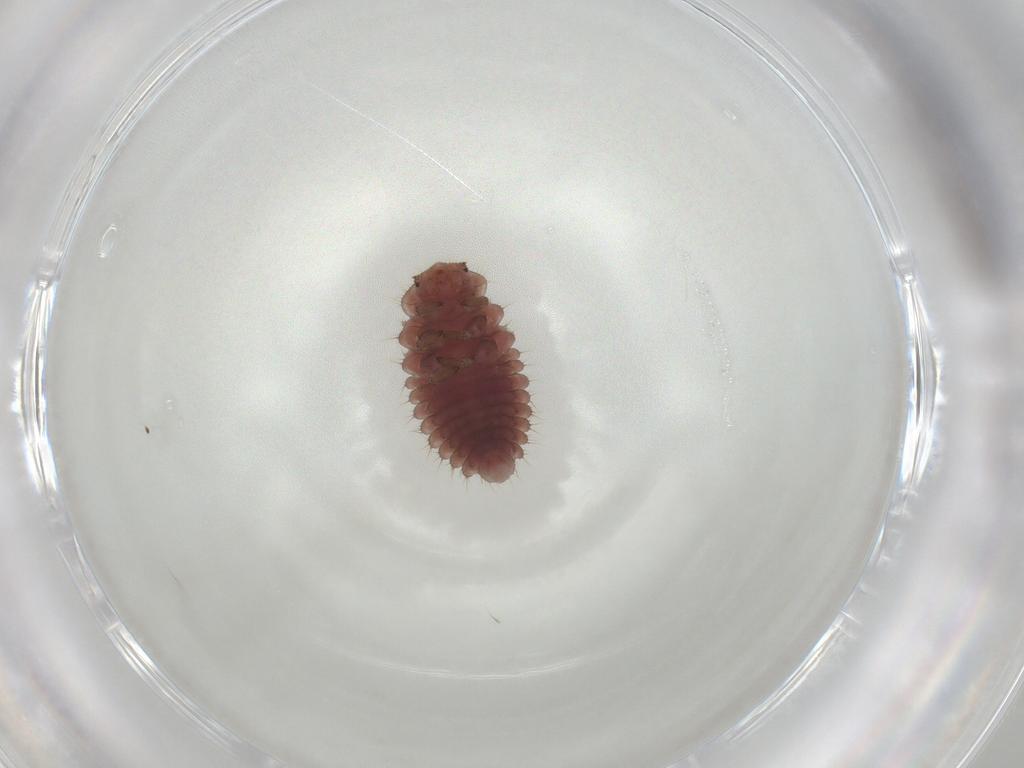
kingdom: Animalia
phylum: Arthropoda
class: Insecta
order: Coleoptera
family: Coccinellidae
